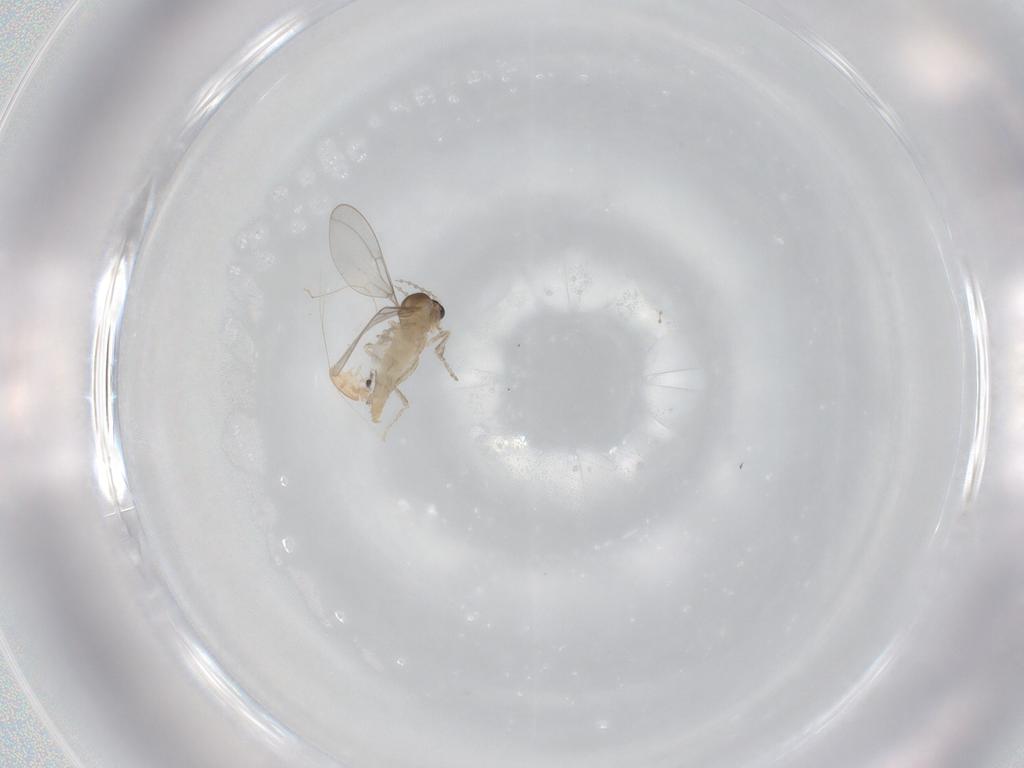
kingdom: Animalia
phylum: Arthropoda
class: Insecta
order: Diptera
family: Cecidomyiidae
